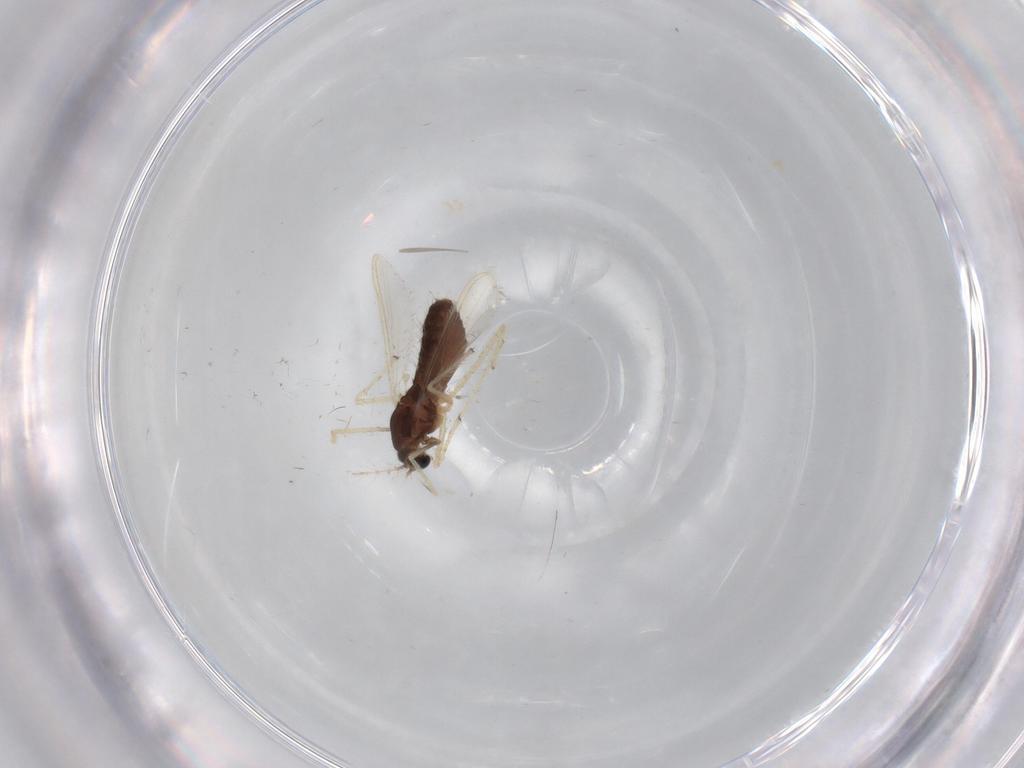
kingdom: Animalia
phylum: Arthropoda
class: Insecta
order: Diptera
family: Chironomidae
